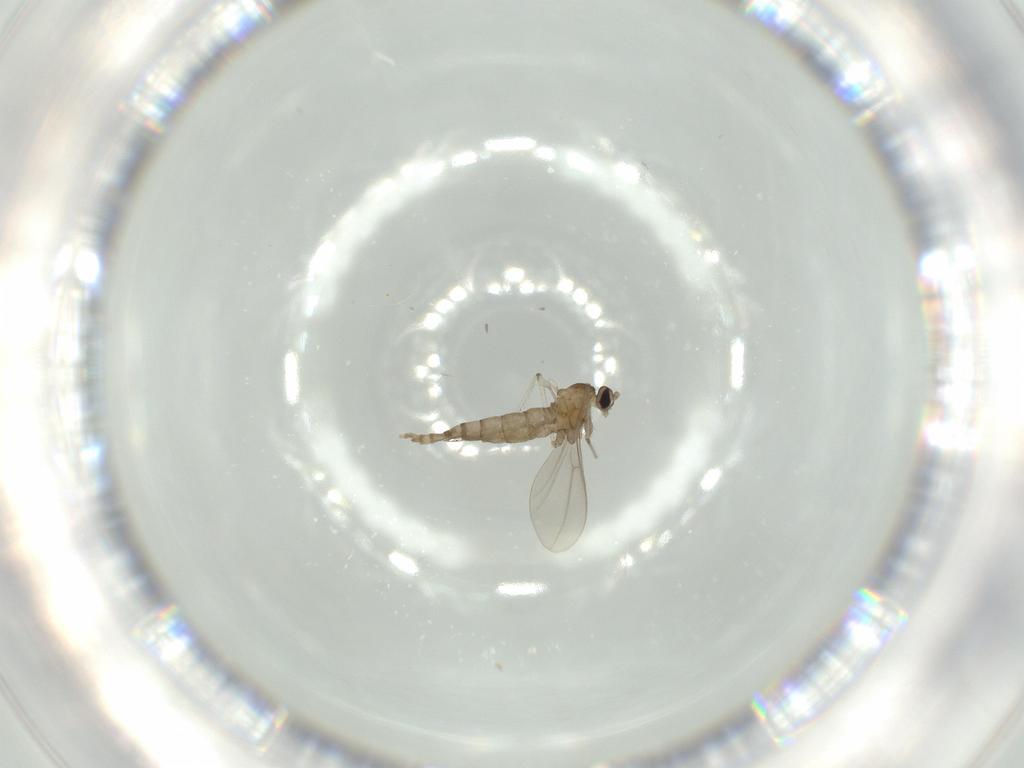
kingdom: Animalia
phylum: Arthropoda
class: Insecta
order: Diptera
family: Cecidomyiidae
